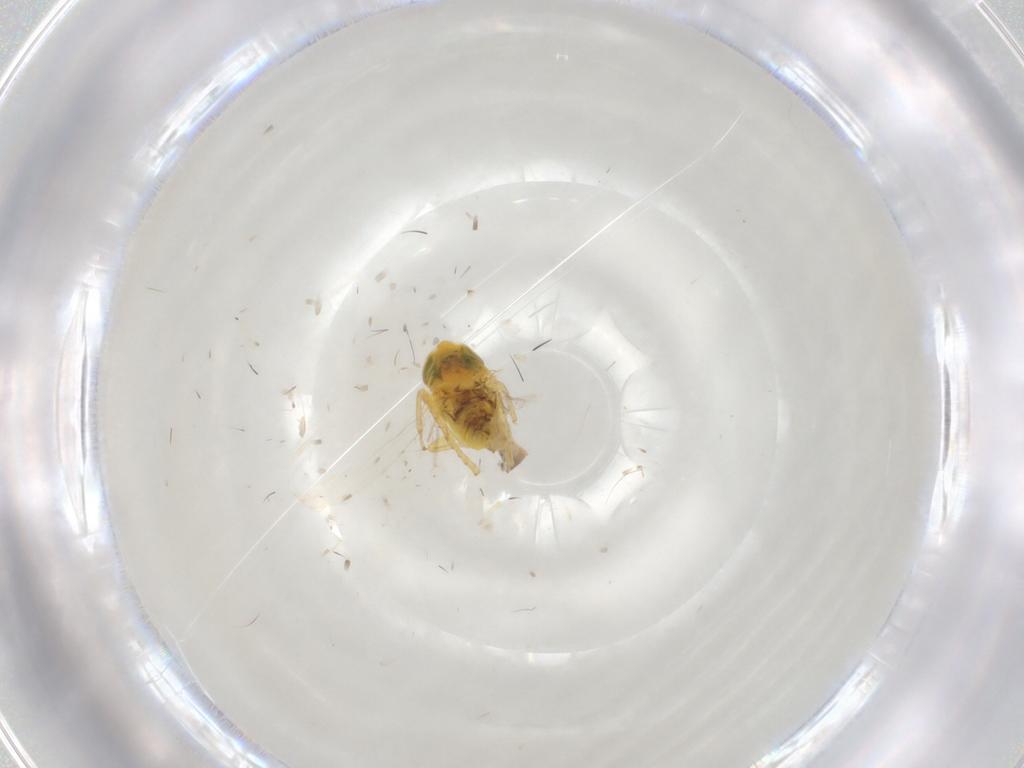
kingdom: Animalia
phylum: Arthropoda
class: Insecta
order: Hemiptera
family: Cicadellidae
